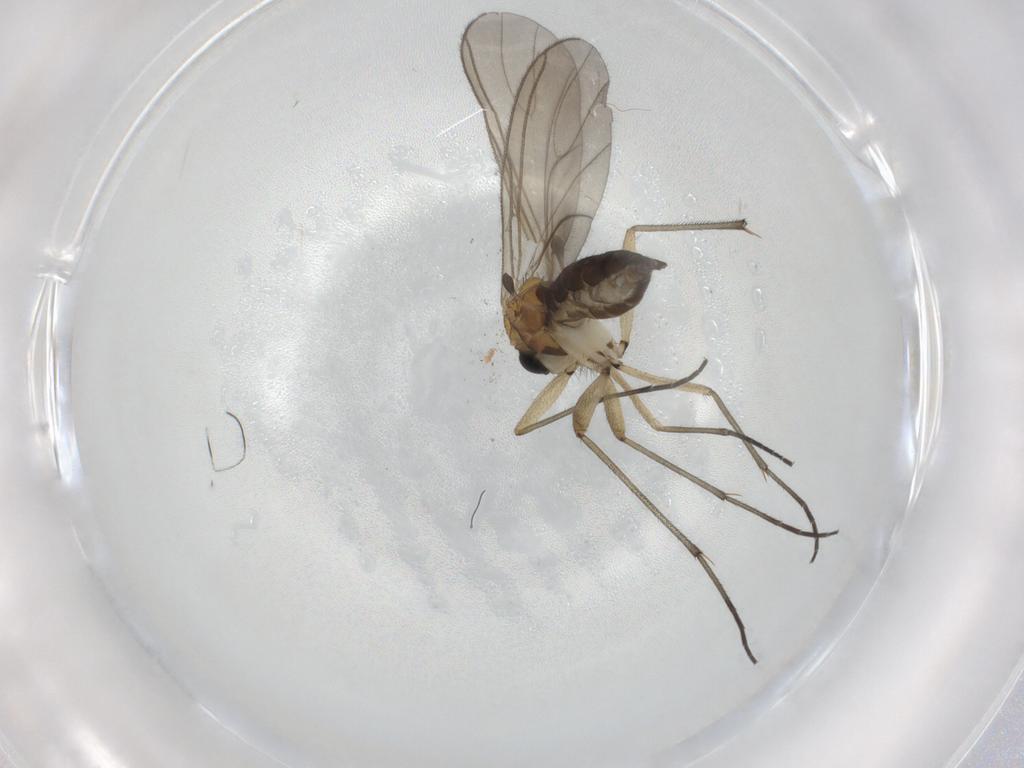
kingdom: Animalia
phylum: Arthropoda
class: Insecta
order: Diptera
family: Sciaridae
